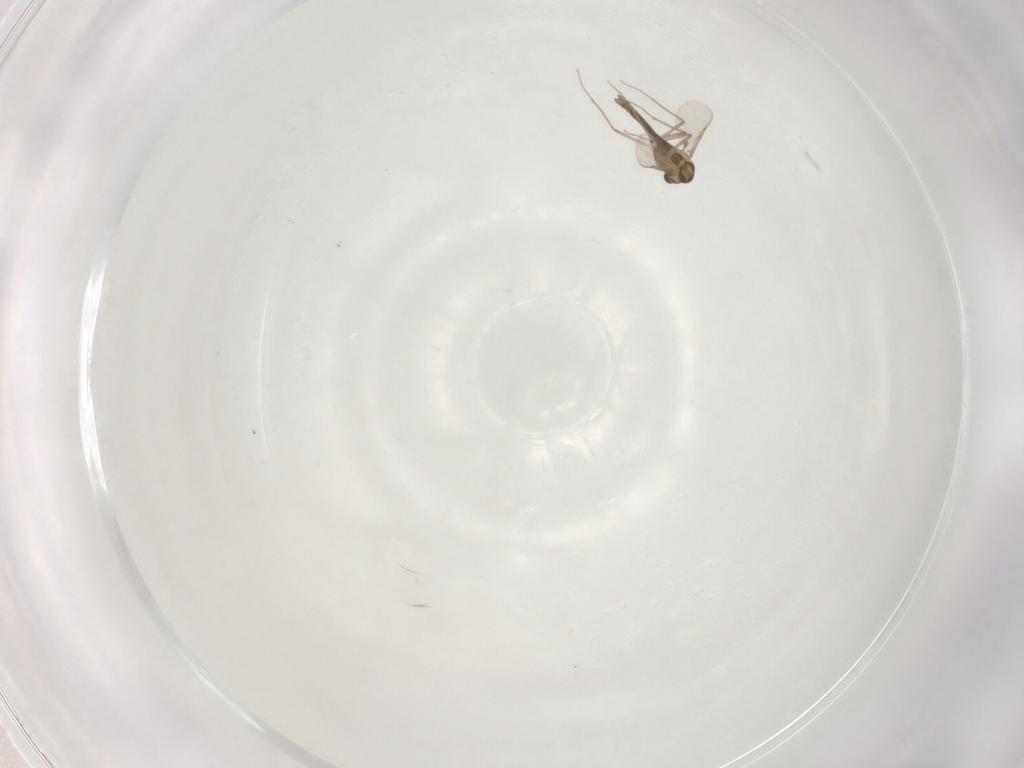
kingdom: Animalia
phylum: Arthropoda
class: Insecta
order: Diptera
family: Chironomidae
